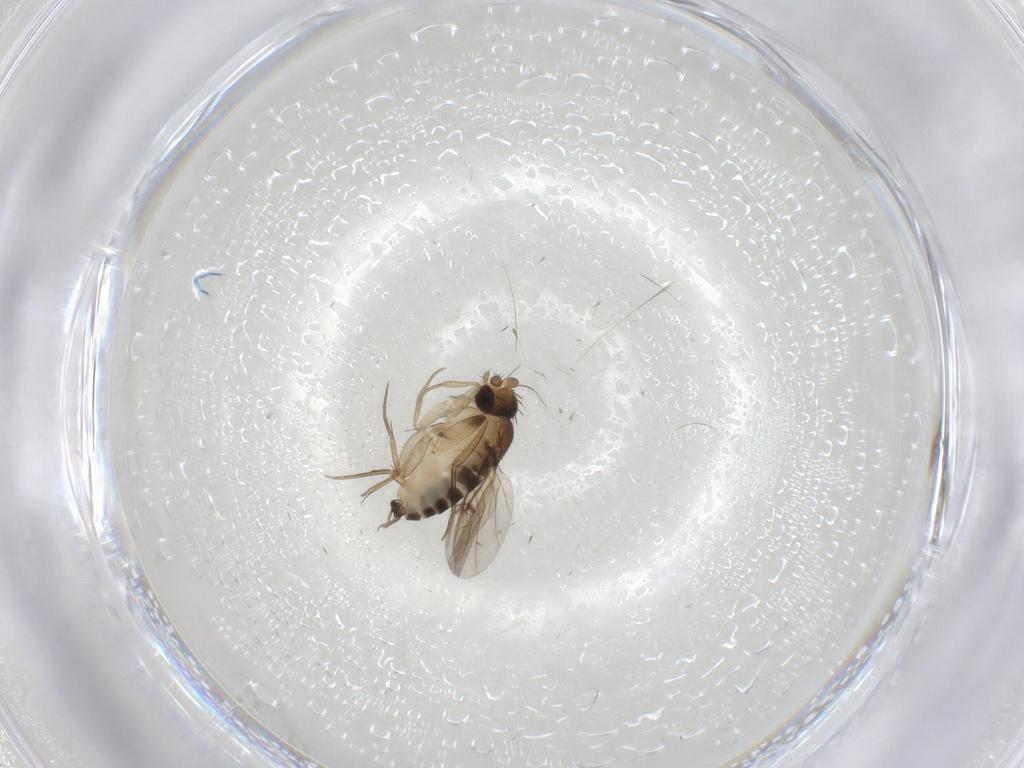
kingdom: Animalia
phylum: Arthropoda
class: Insecta
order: Diptera
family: Phoridae
